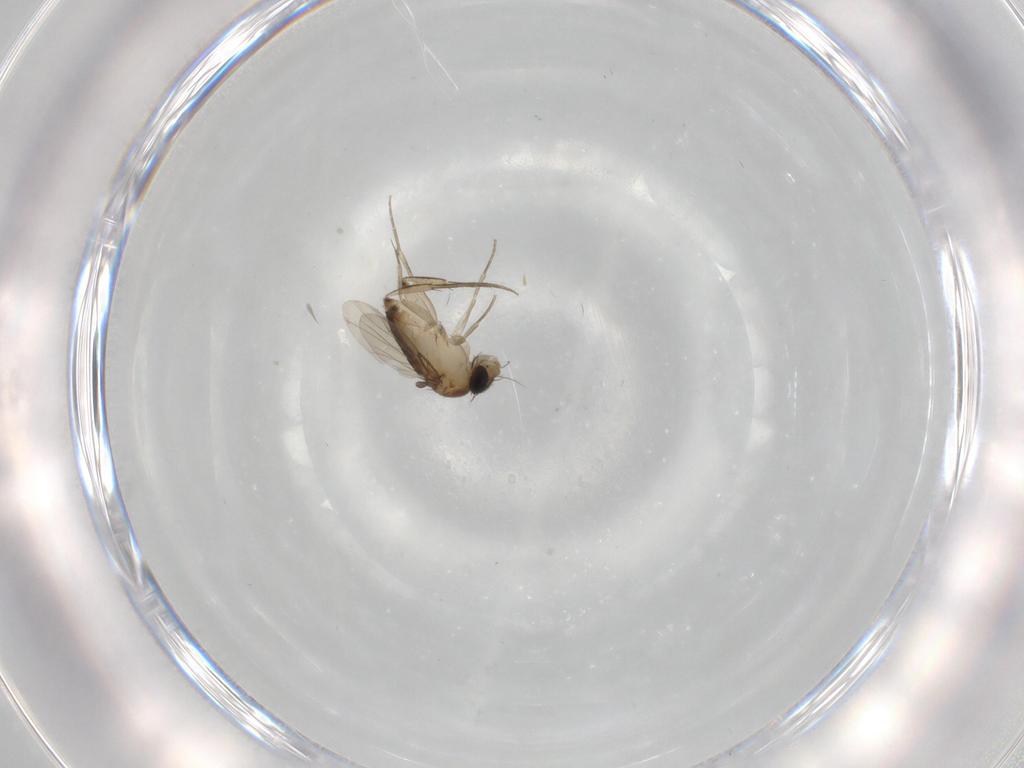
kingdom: Animalia
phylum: Arthropoda
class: Insecta
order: Diptera
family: Phoridae
